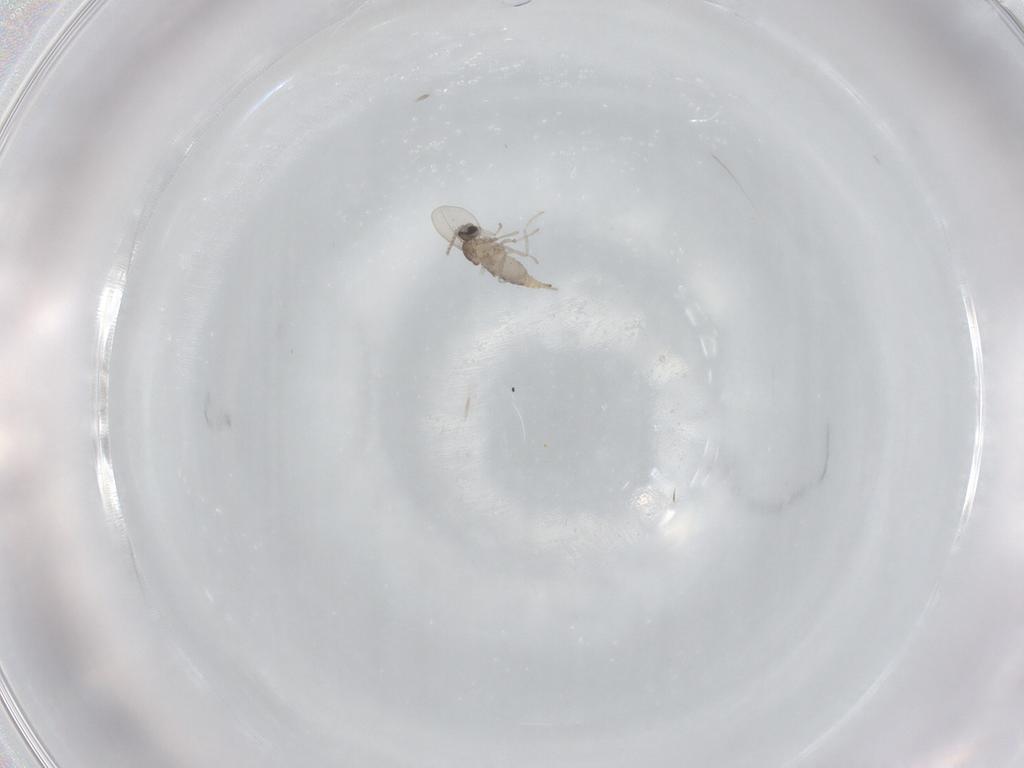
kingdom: Animalia
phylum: Arthropoda
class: Insecta
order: Diptera
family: Cecidomyiidae
